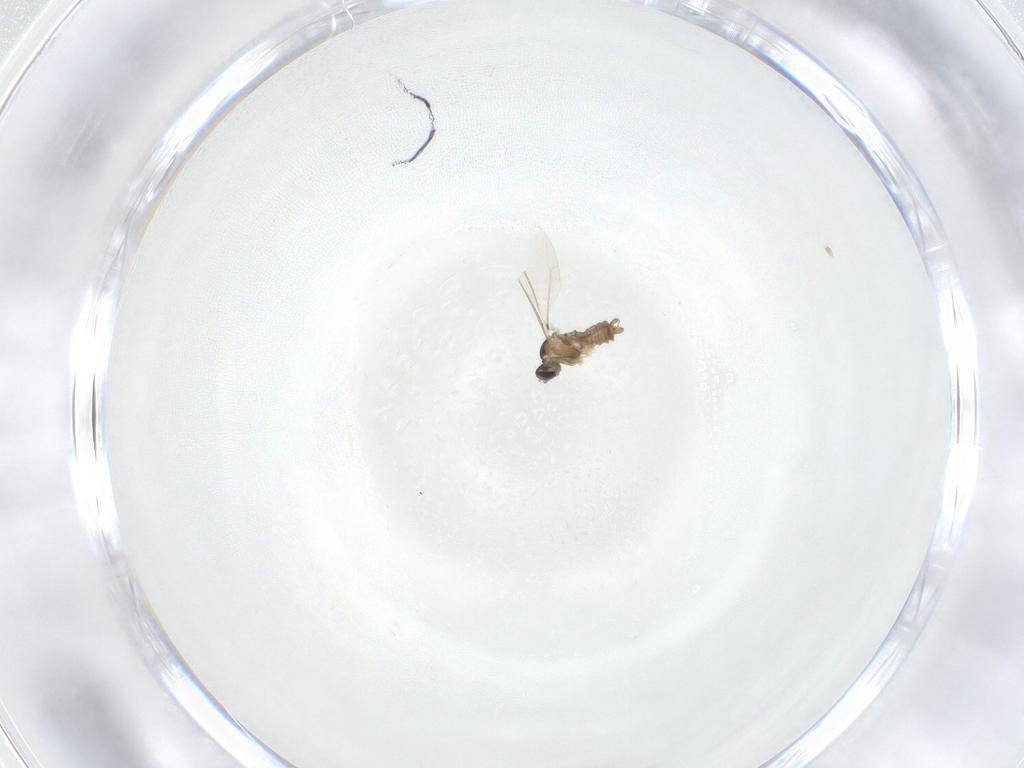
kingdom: Animalia
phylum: Arthropoda
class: Insecta
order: Diptera
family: Cecidomyiidae
